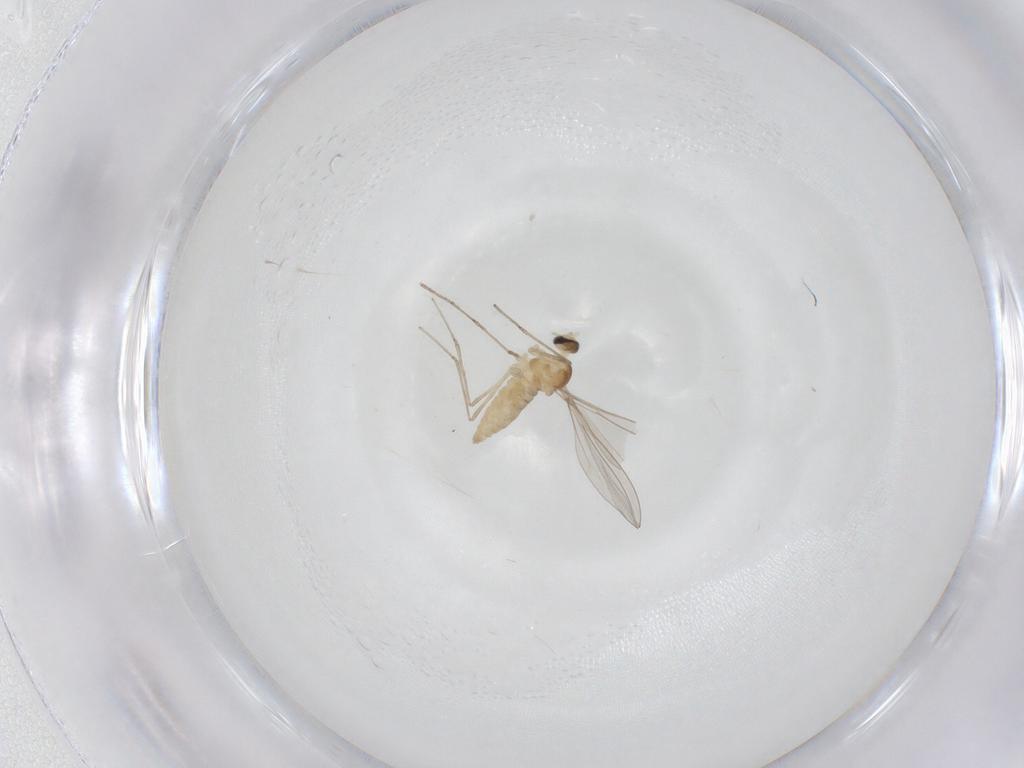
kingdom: Animalia
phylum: Arthropoda
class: Insecta
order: Diptera
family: Cecidomyiidae
